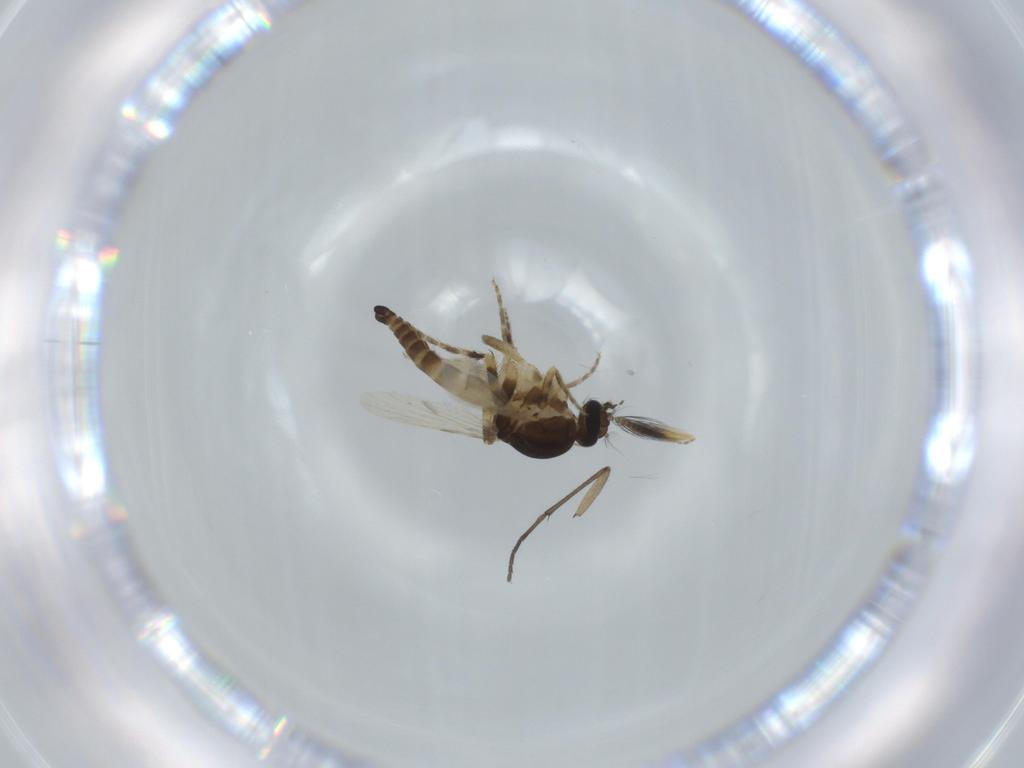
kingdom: Animalia
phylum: Arthropoda
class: Insecta
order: Diptera
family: Ceratopogonidae
